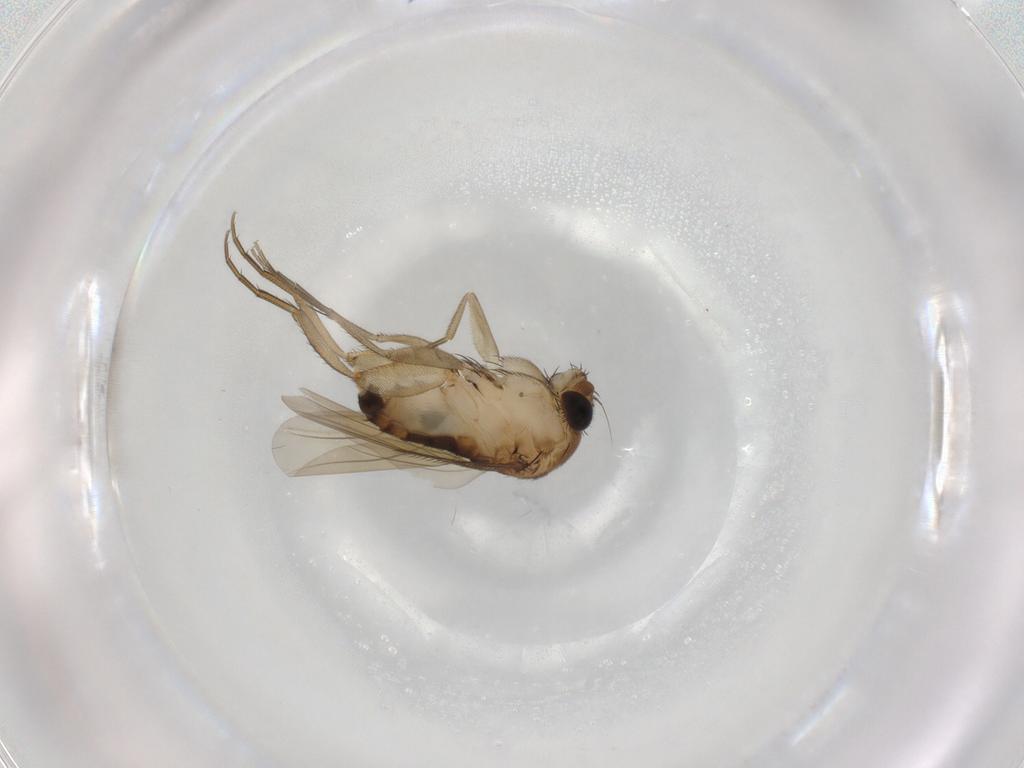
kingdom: Animalia
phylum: Arthropoda
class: Insecta
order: Diptera
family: Phoridae
